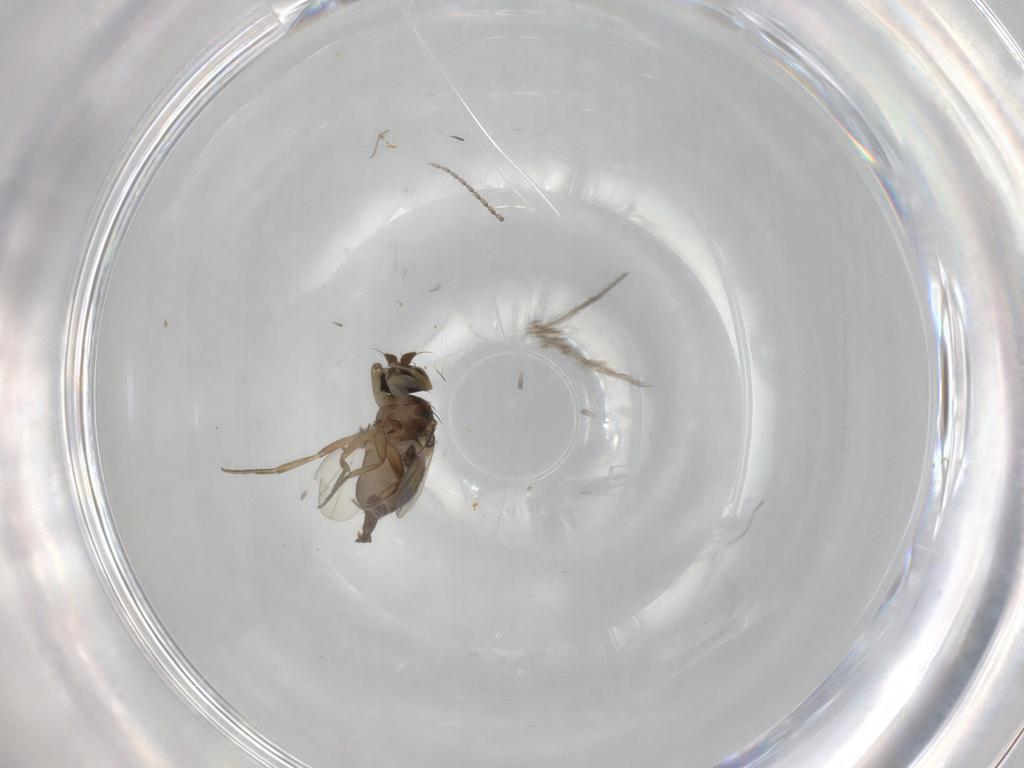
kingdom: Animalia
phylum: Arthropoda
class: Insecta
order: Diptera
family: Phoridae
